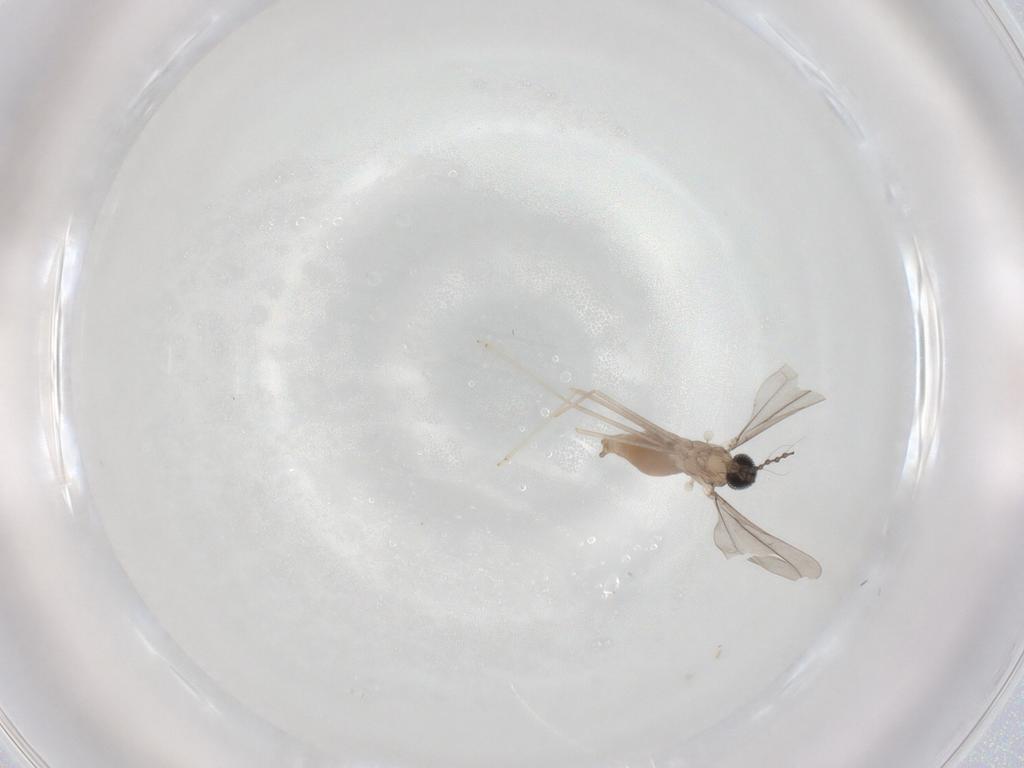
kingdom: Animalia
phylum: Arthropoda
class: Insecta
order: Diptera
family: Cecidomyiidae
